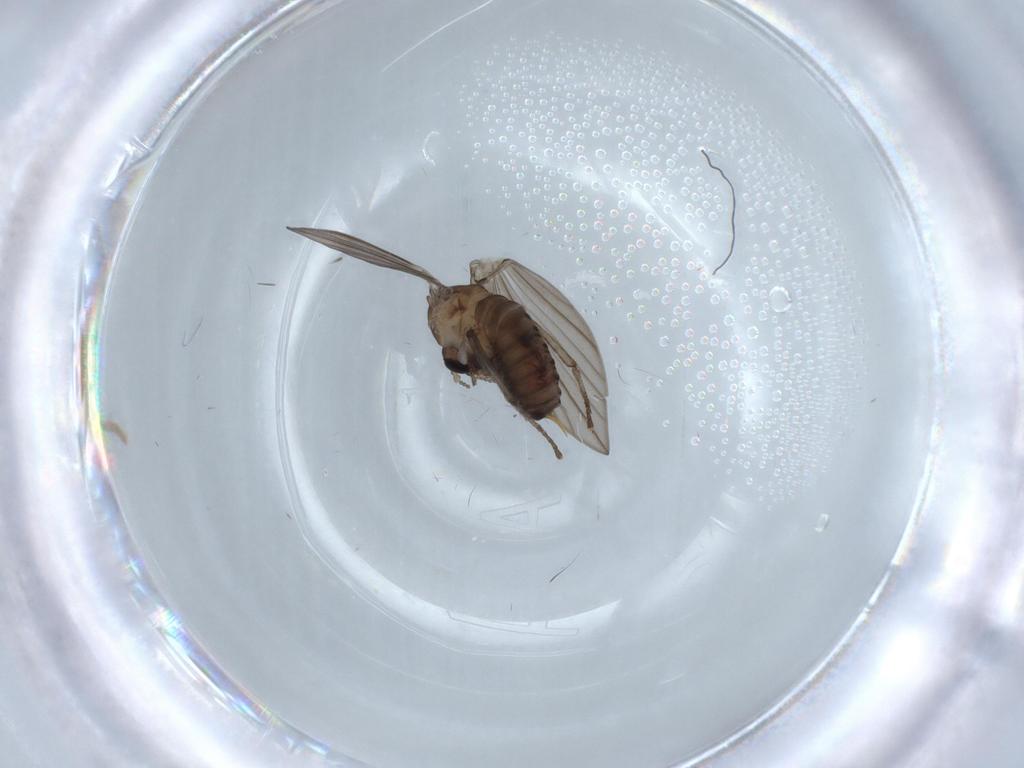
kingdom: Animalia
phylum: Arthropoda
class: Insecta
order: Diptera
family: Psychodidae
